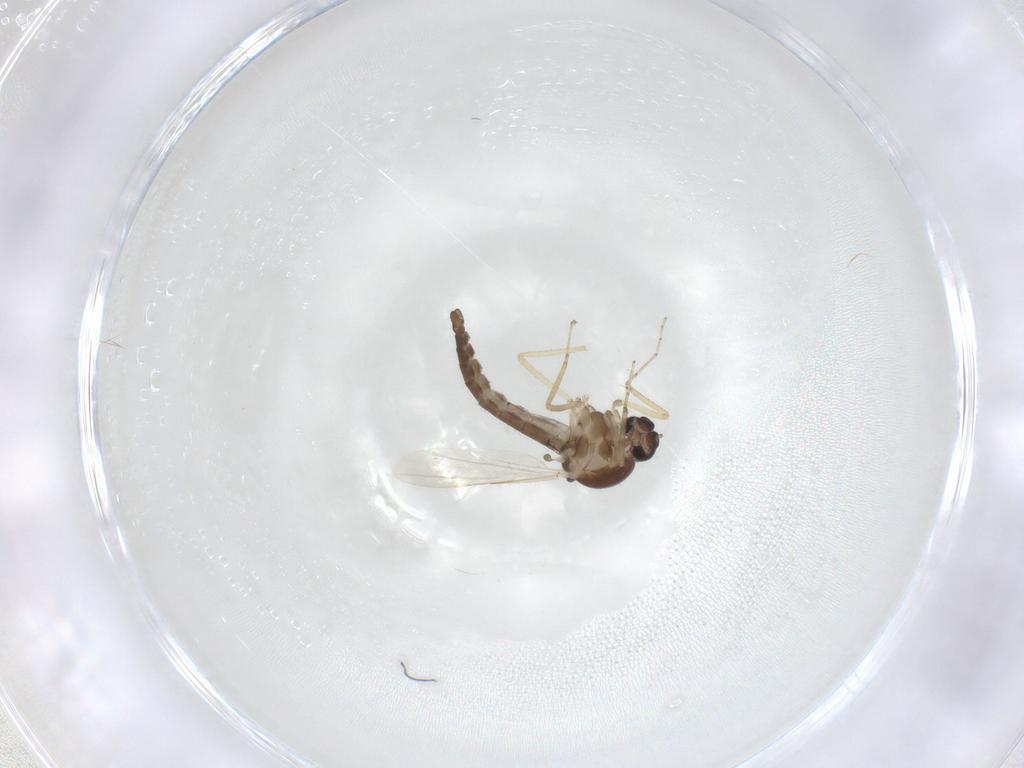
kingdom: Animalia
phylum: Arthropoda
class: Insecta
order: Diptera
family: Ceratopogonidae
